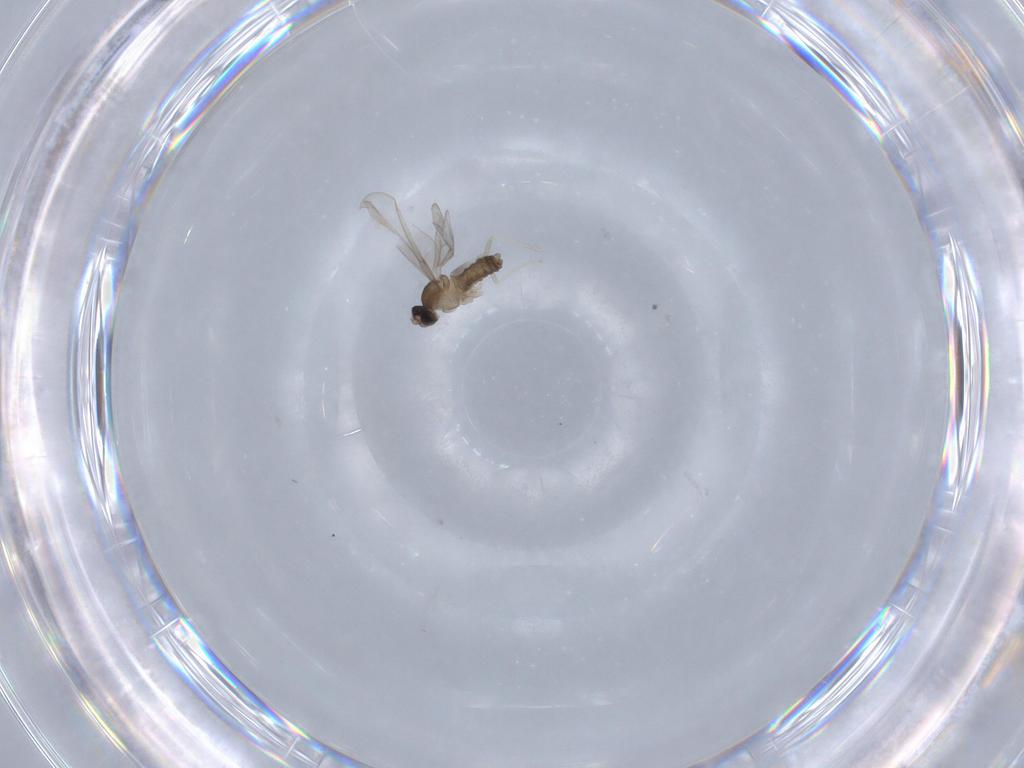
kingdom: Animalia
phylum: Arthropoda
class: Insecta
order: Diptera
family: Cecidomyiidae
